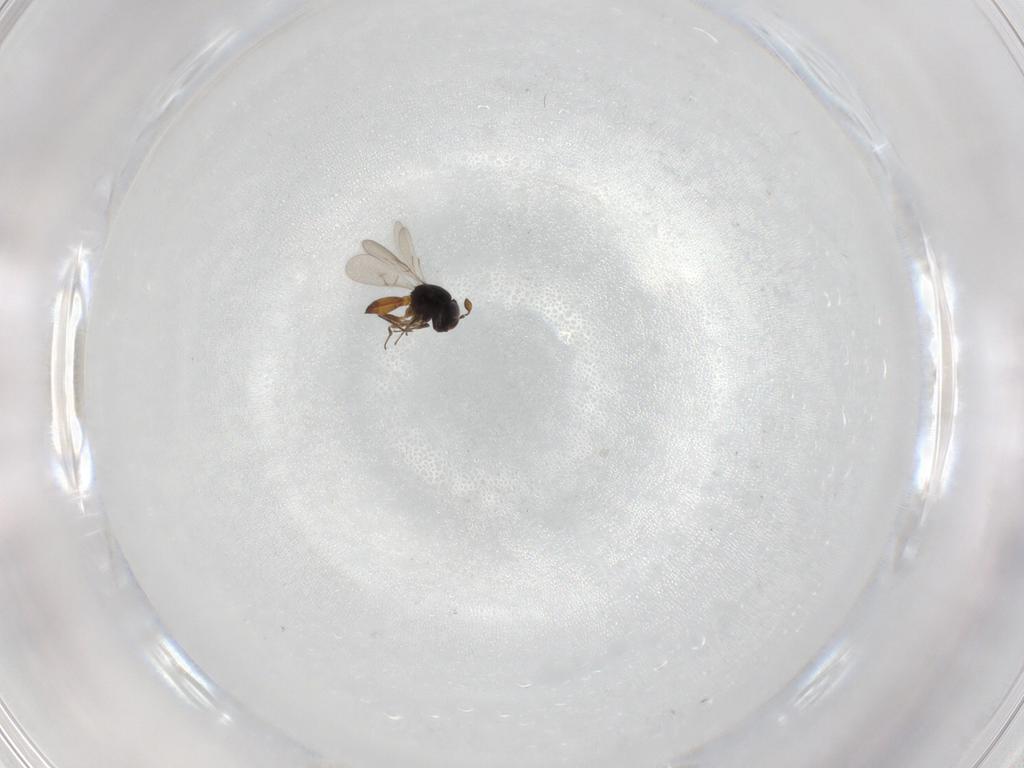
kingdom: Animalia
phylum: Arthropoda
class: Arachnida
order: Araneae
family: Pholcidae
